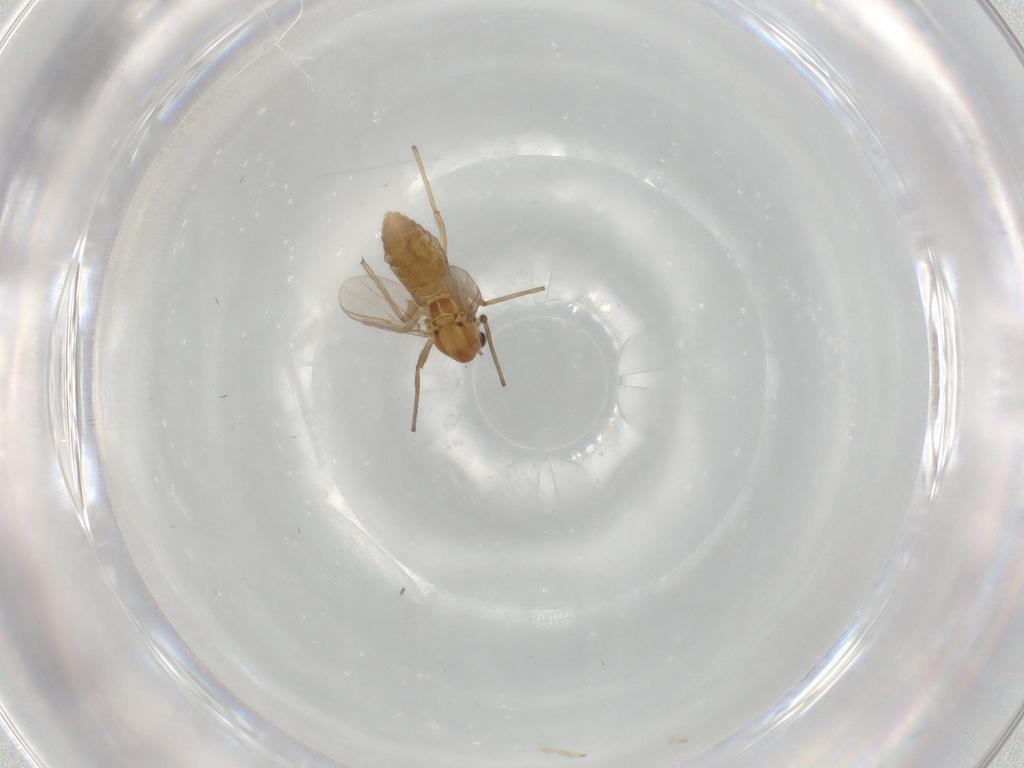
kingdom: Animalia
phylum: Arthropoda
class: Insecta
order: Diptera
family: Chironomidae
